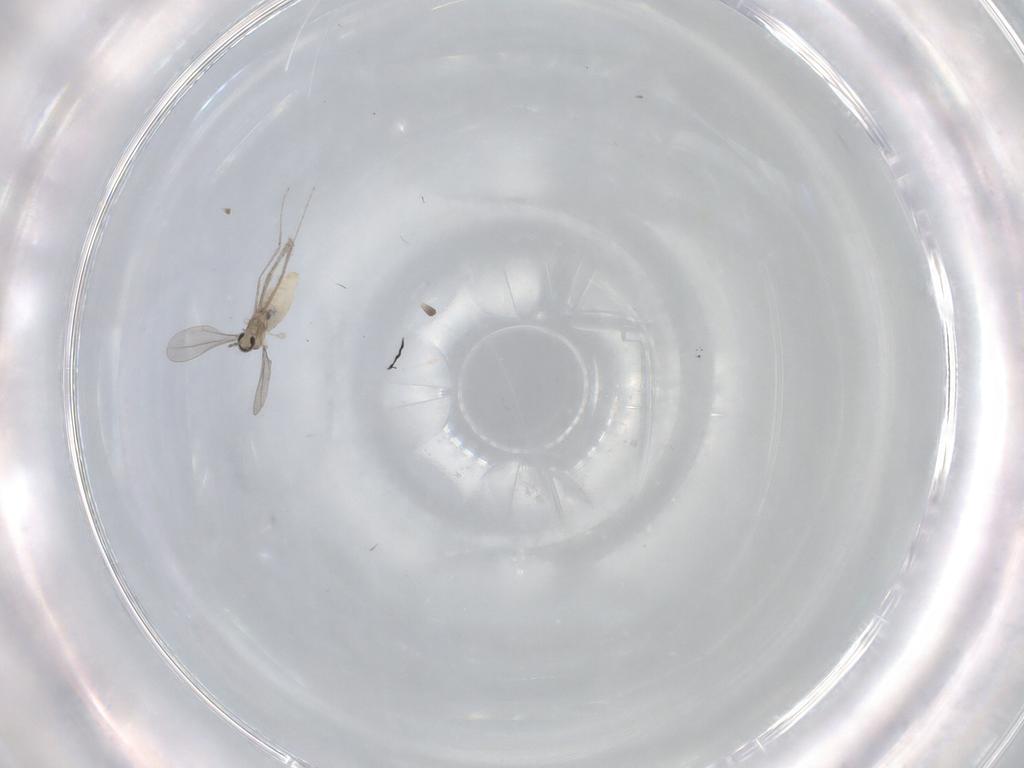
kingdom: Animalia
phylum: Arthropoda
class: Insecta
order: Diptera
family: Cecidomyiidae
